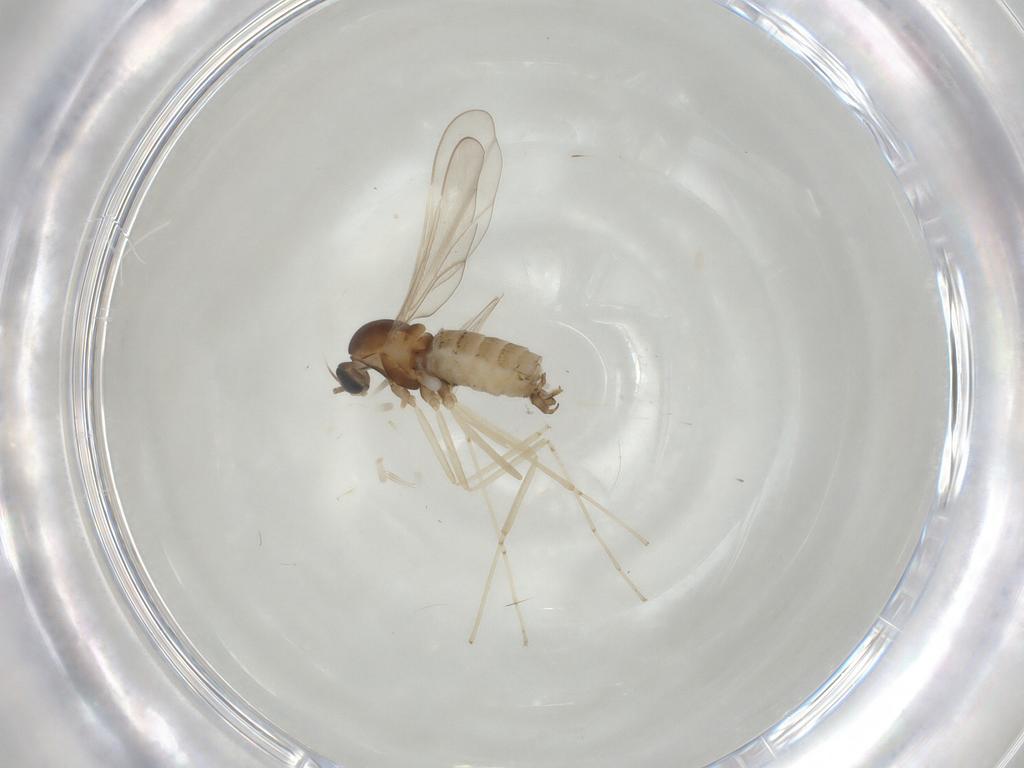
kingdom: Animalia
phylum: Arthropoda
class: Insecta
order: Diptera
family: Cecidomyiidae
